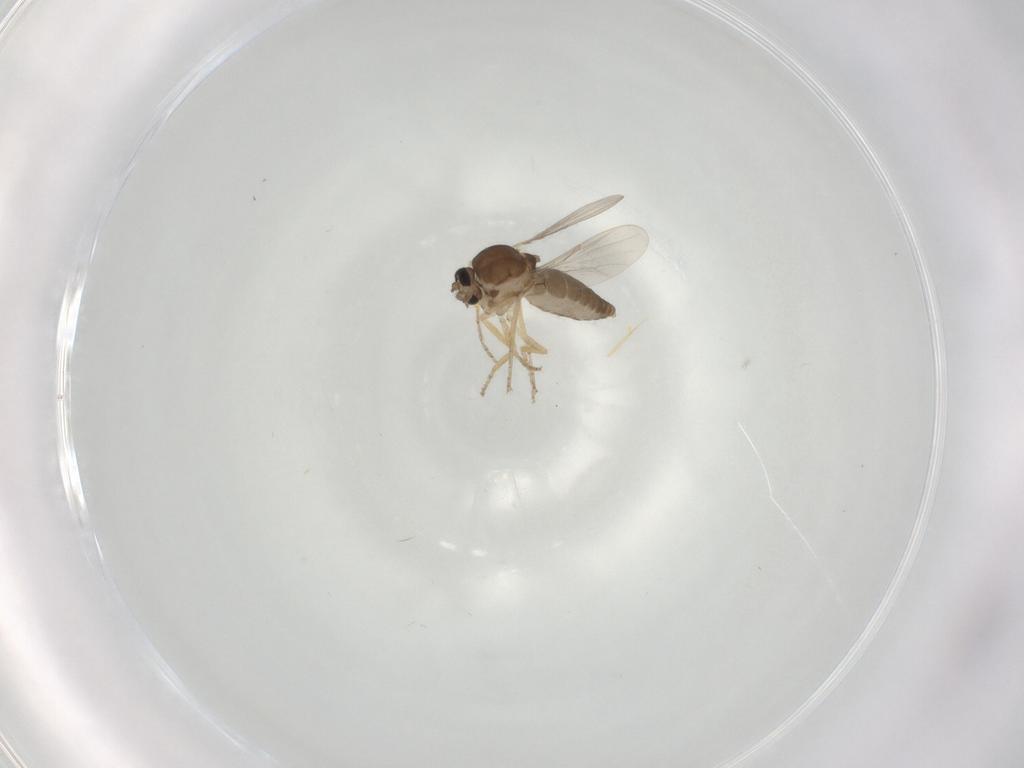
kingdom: Animalia
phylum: Arthropoda
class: Insecta
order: Diptera
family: Ceratopogonidae
